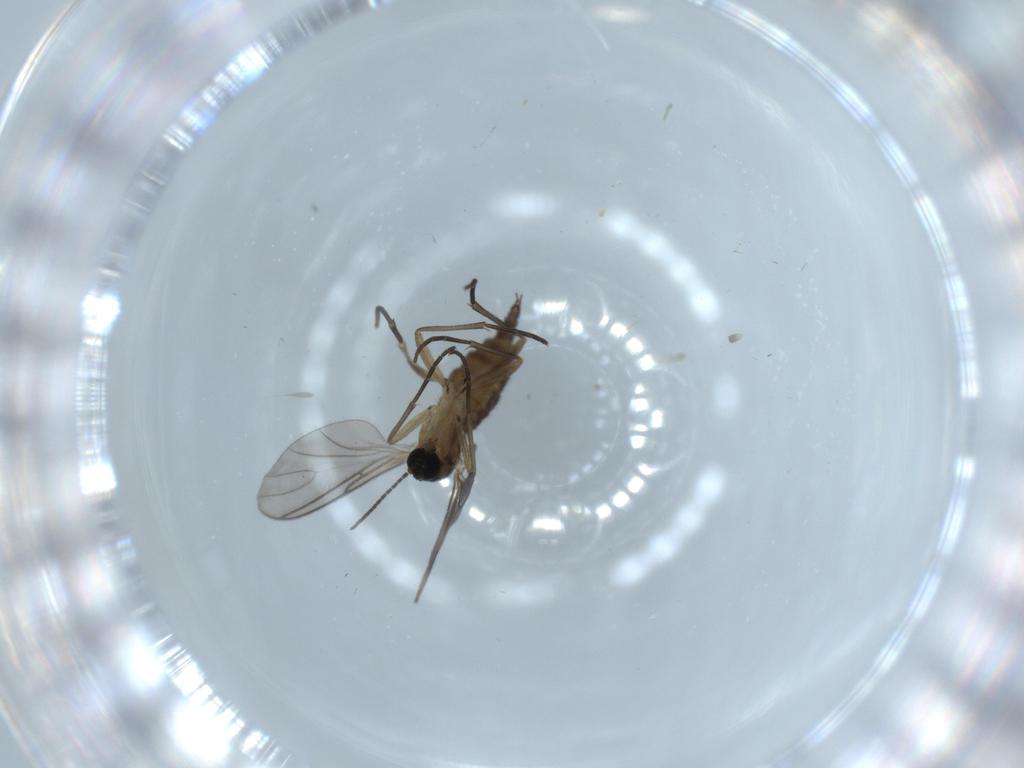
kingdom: Animalia
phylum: Arthropoda
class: Insecta
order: Diptera
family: Sciaridae
